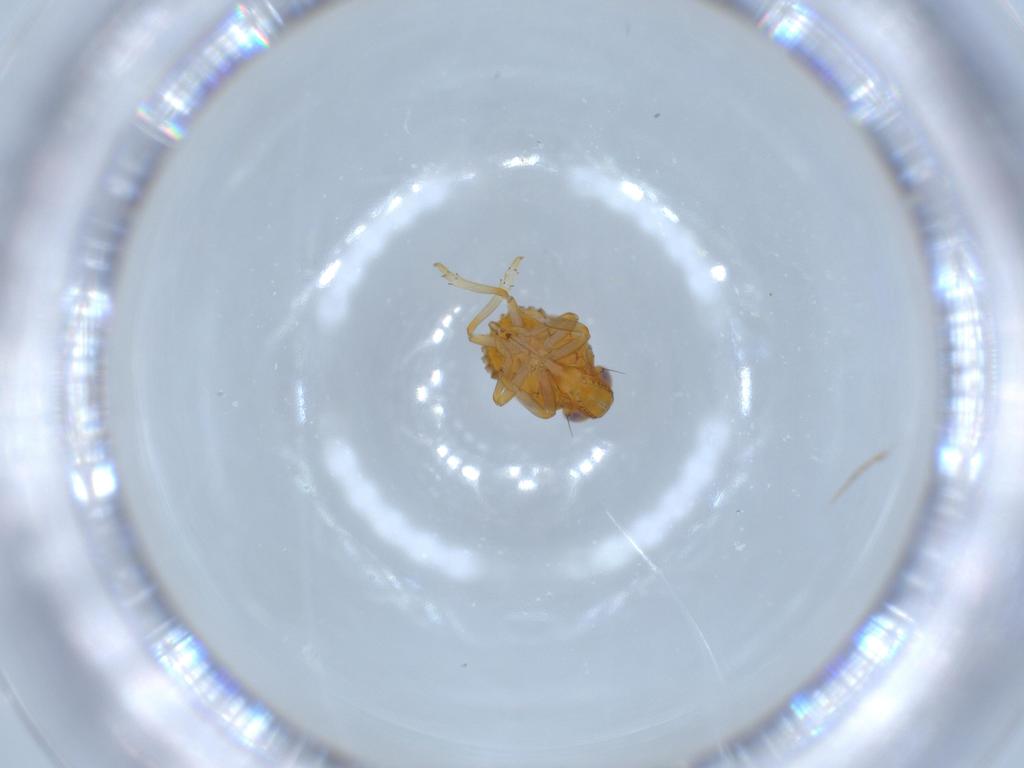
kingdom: Animalia
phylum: Arthropoda
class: Insecta
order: Hemiptera
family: Issidae
